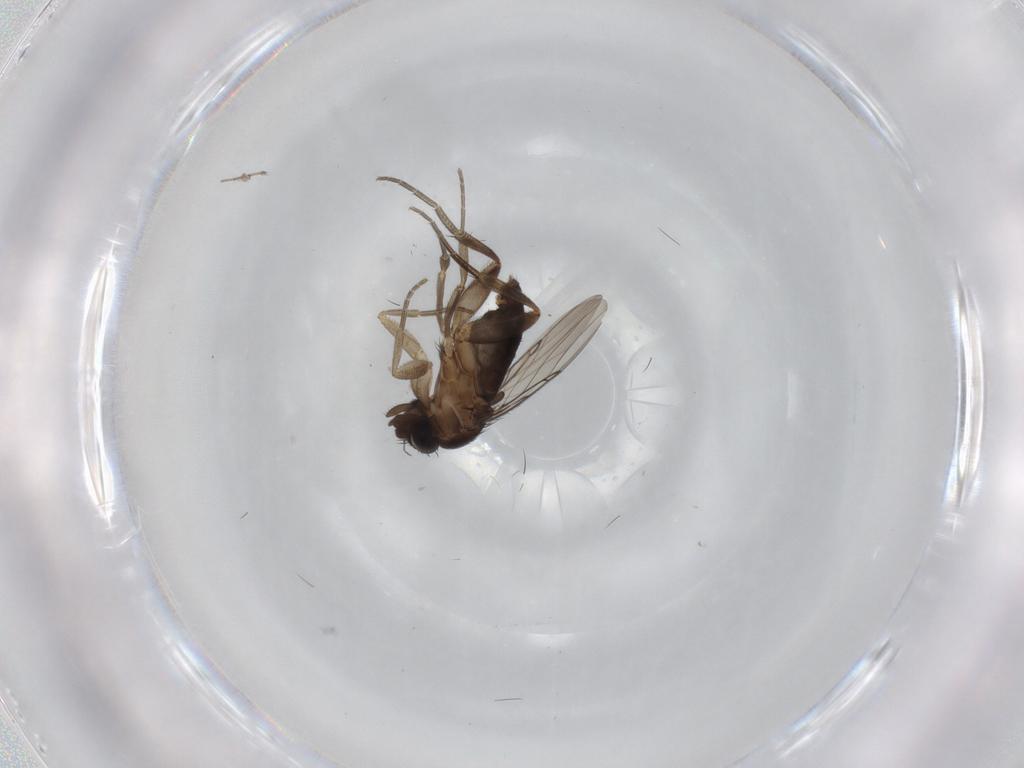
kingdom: Animalia
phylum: Arthropoda
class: Insecta
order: Diptera
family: Phoridae
